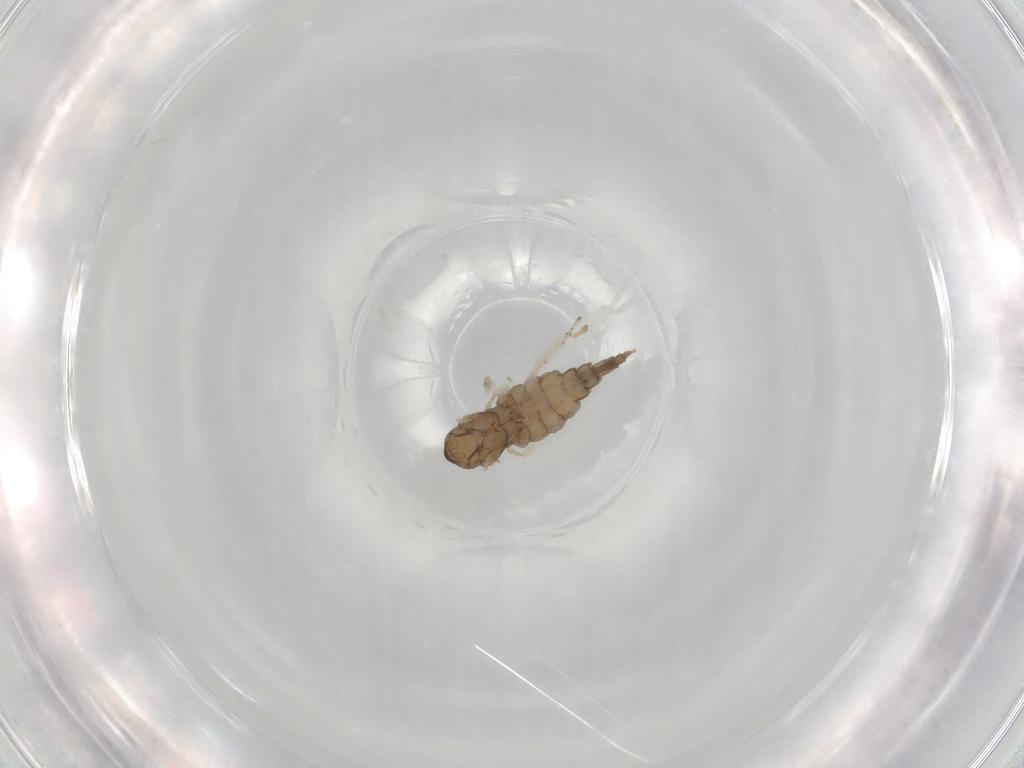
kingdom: Animalia
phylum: Arthropoda
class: Insecta
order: Diptera
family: Cecidomyiidae
